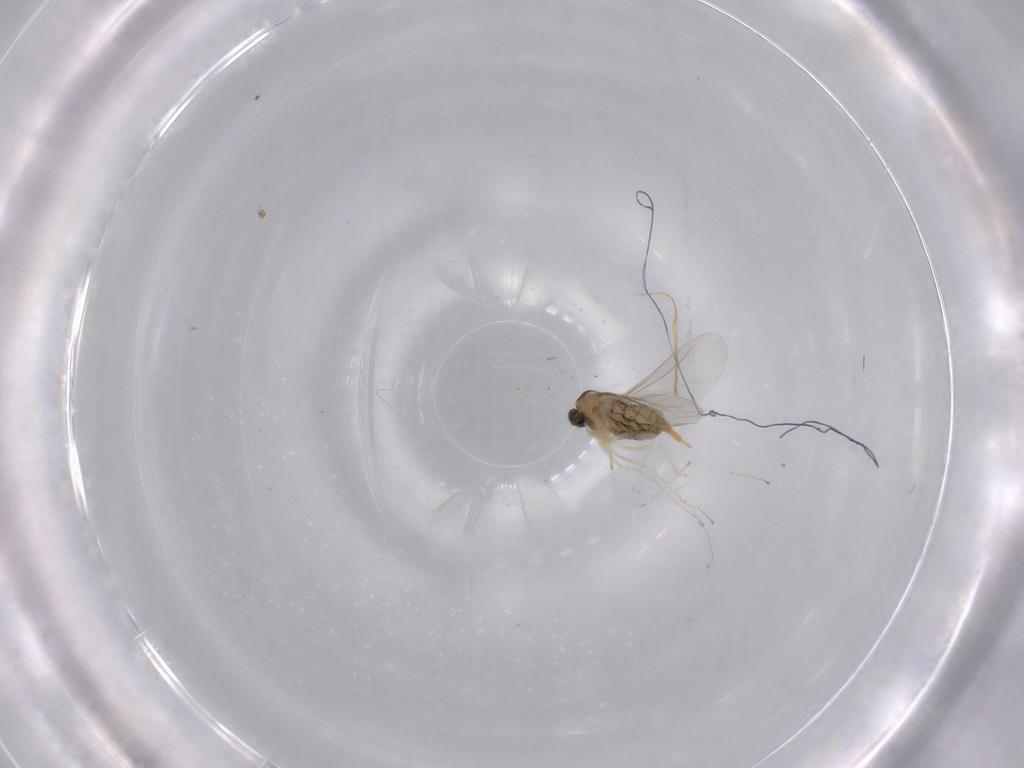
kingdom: Animalia
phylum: Arthropoda
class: Insecta
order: Diptera
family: Cecidomyiidae
